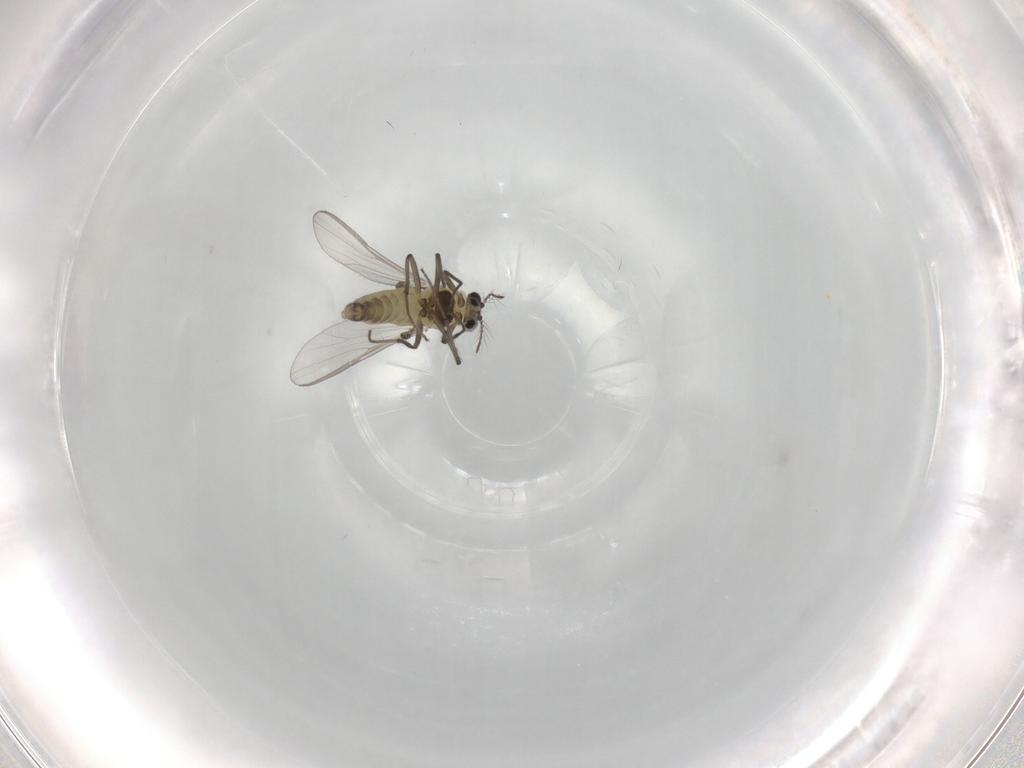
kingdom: Animalia
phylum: Arthropoda
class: Insecta
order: Diptera
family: Chironomidae
